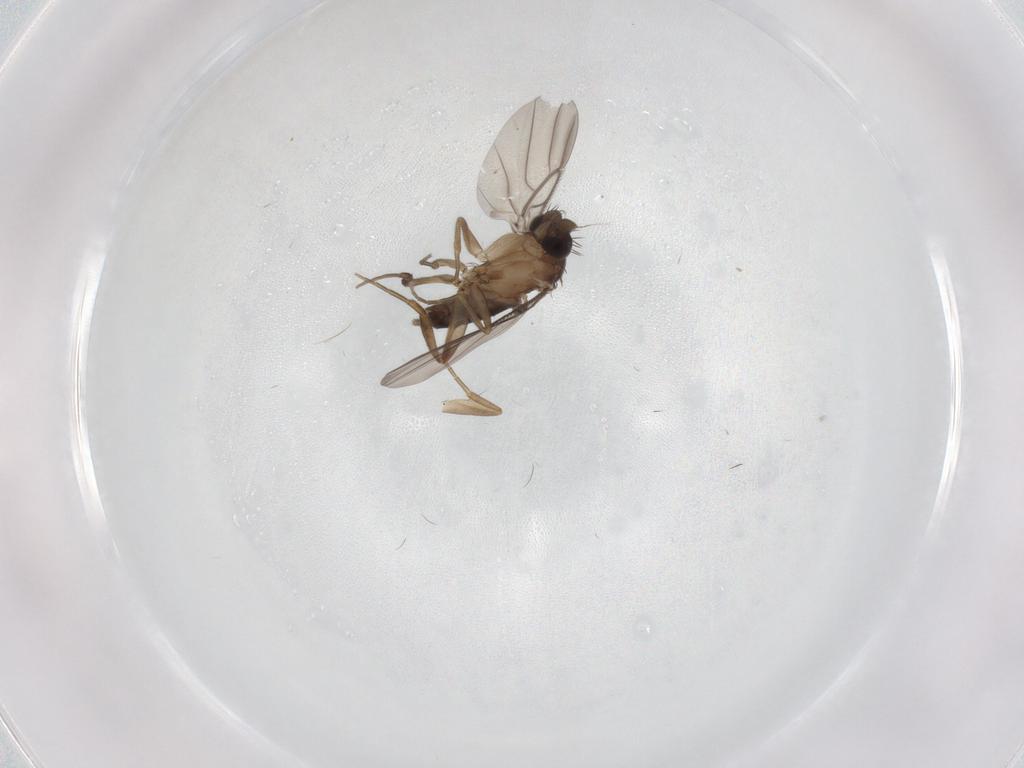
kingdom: Animalia
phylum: Arthropoda
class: Insecta
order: Diptera
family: Phoridae
